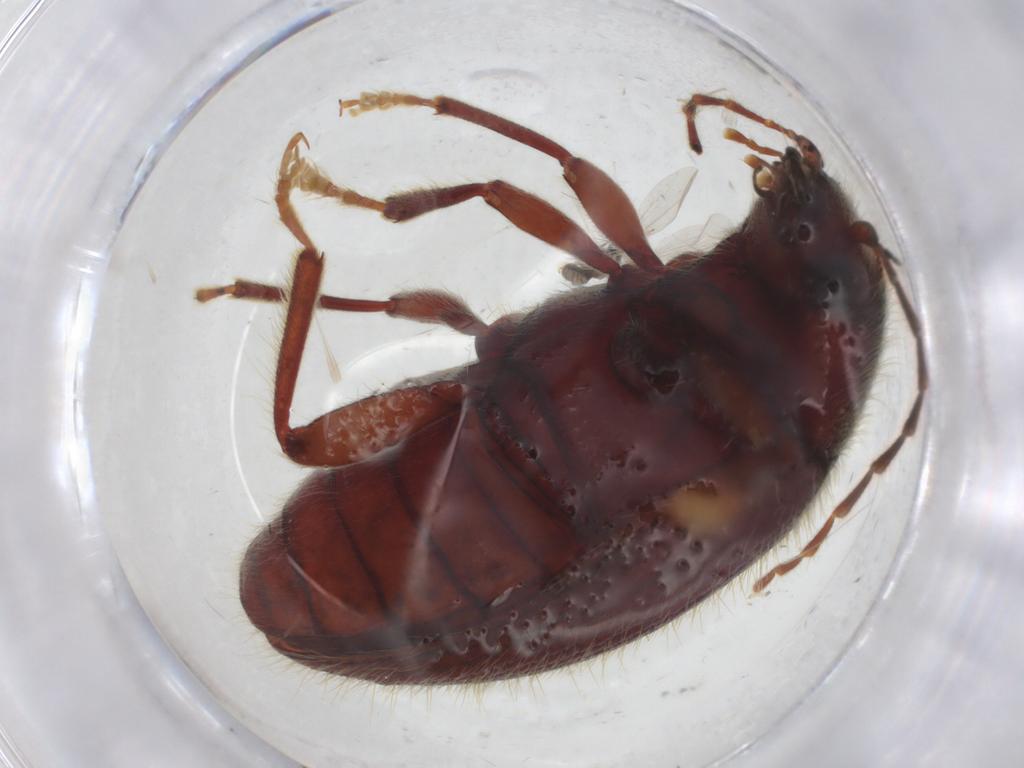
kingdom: Animalia
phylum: Arthropoda
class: Insecta
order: Coleoptera
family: Artematopodidae
